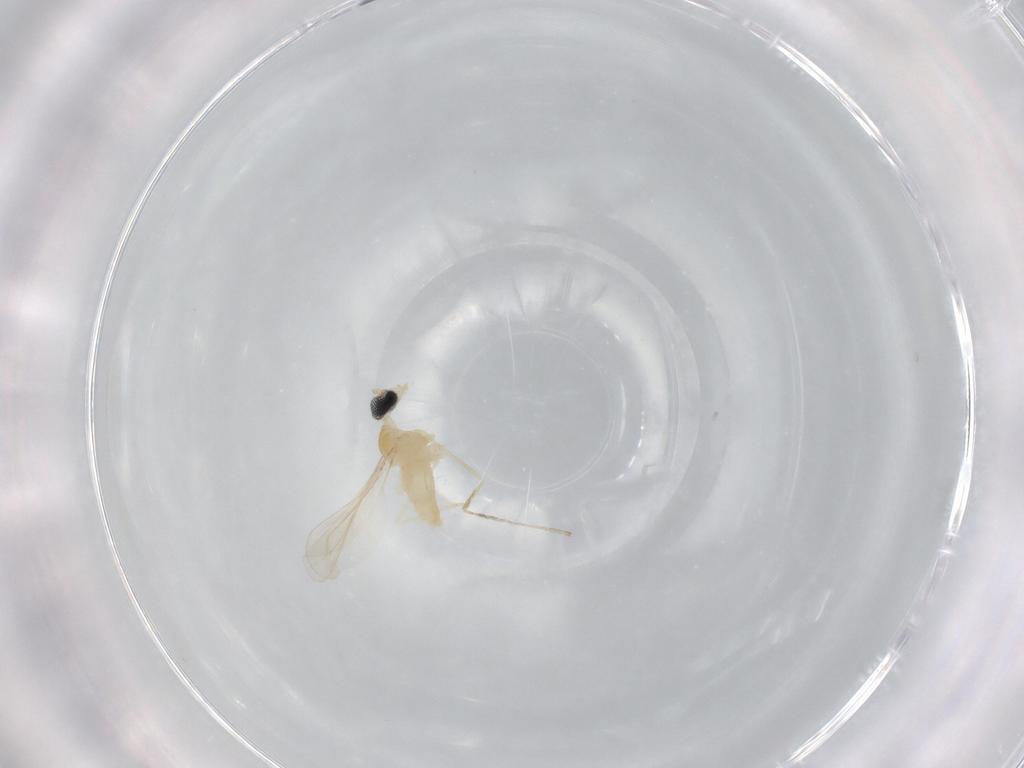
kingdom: Animalia
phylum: Arthropoda
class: Insecta
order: Diptera
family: Cecidomyiidae
